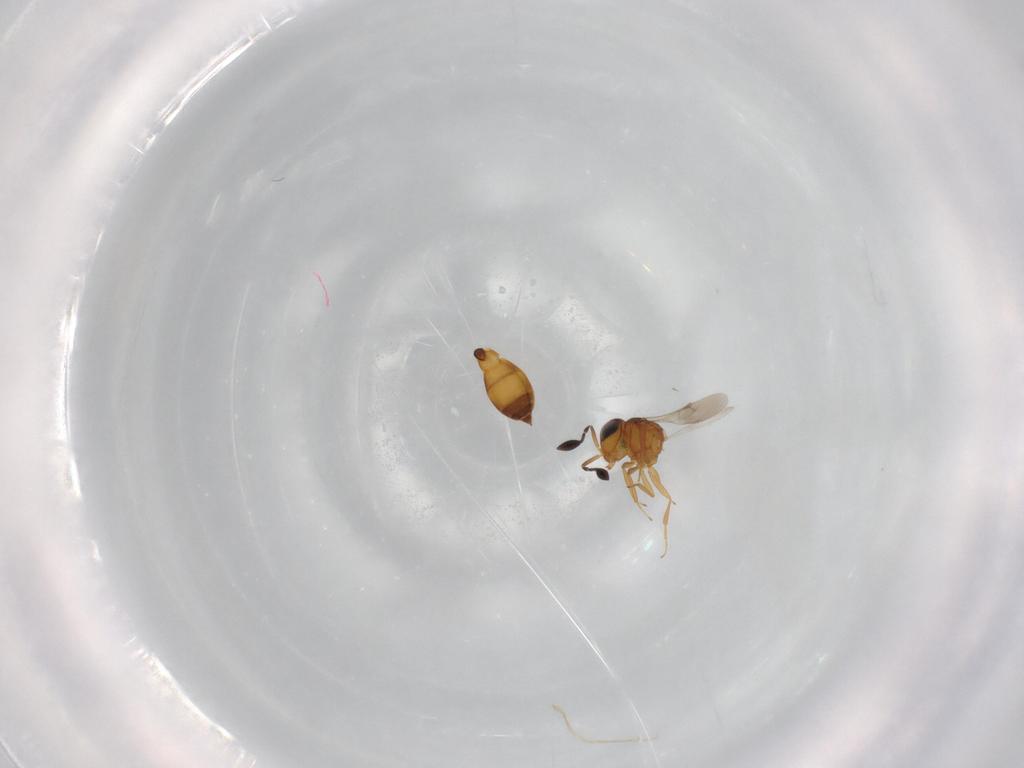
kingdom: Animalia
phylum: Arthropoda
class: Insecta
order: Hymenoptera
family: Scelionidae
